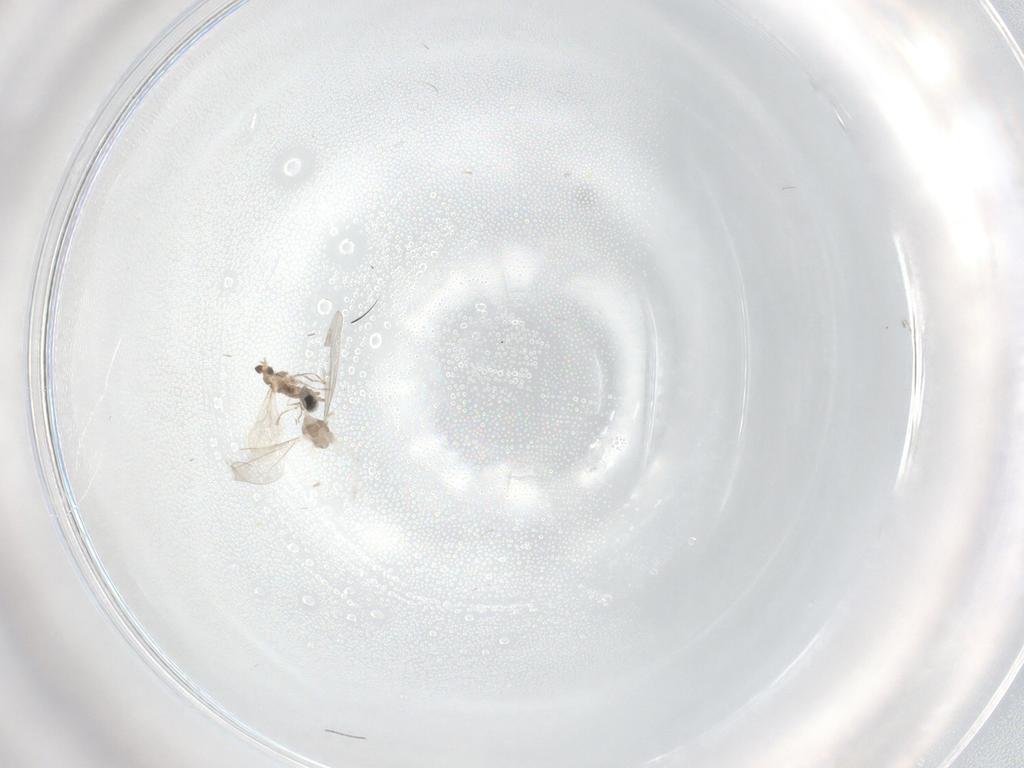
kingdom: Animalia
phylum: Arthropoda
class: Insecta
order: Diptera
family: Cecidomyiidae
